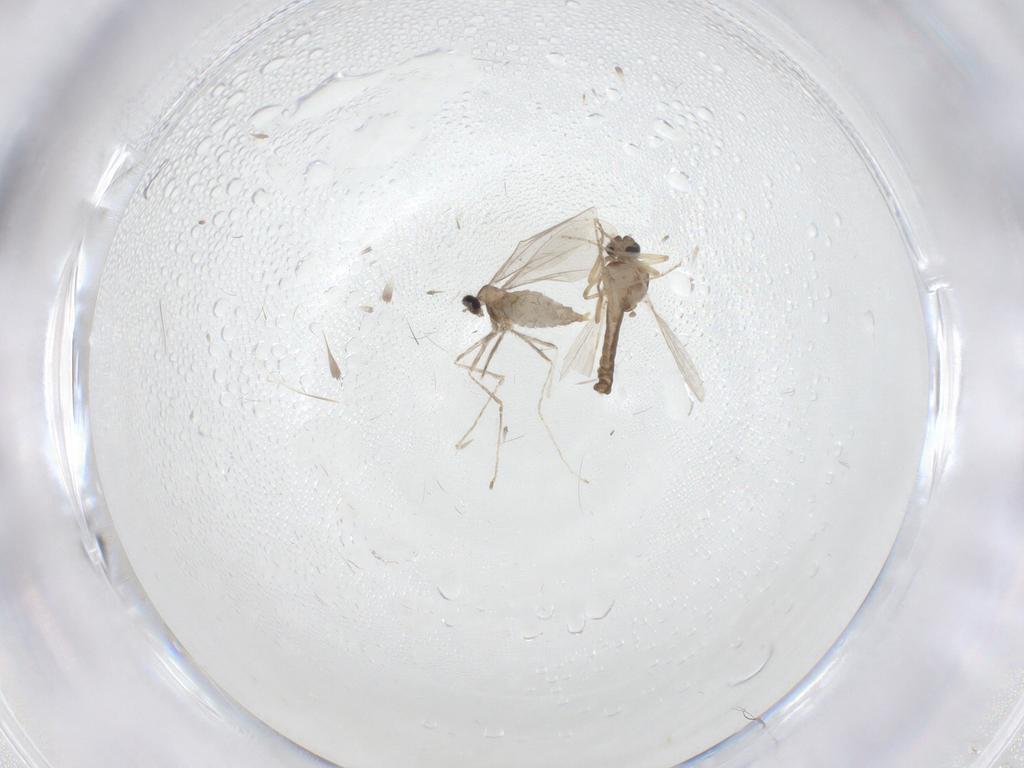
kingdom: Animalia
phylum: Arthropoda
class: Insecta
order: Diptera
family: Cecidomyiidae
